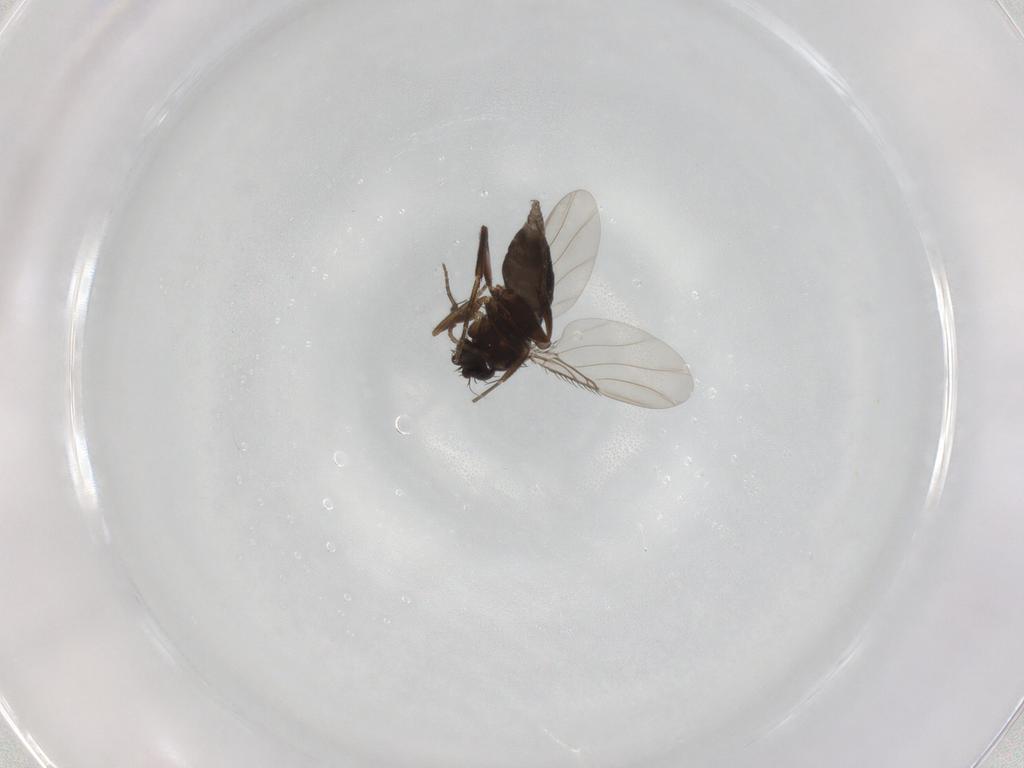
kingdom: Animalia
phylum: Arthropoda
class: Insecta
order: Diptera
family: Phoridae
